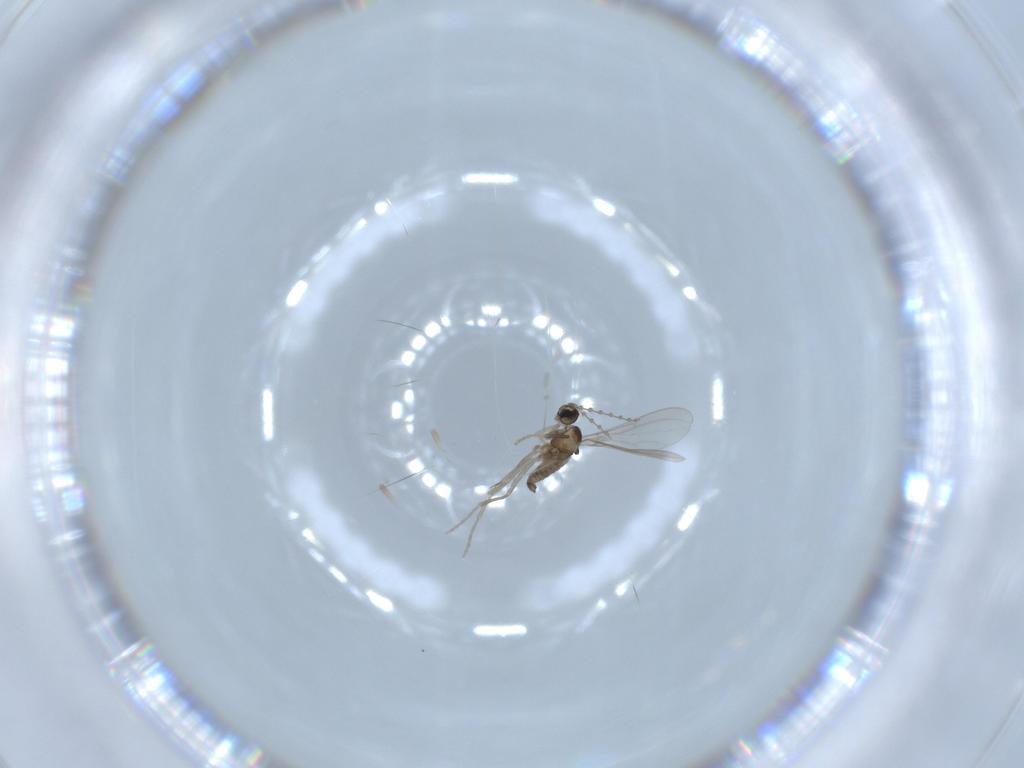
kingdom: Animalia
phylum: Arthropoda
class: Insecta
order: Diptera
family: Cecidomyiidae
